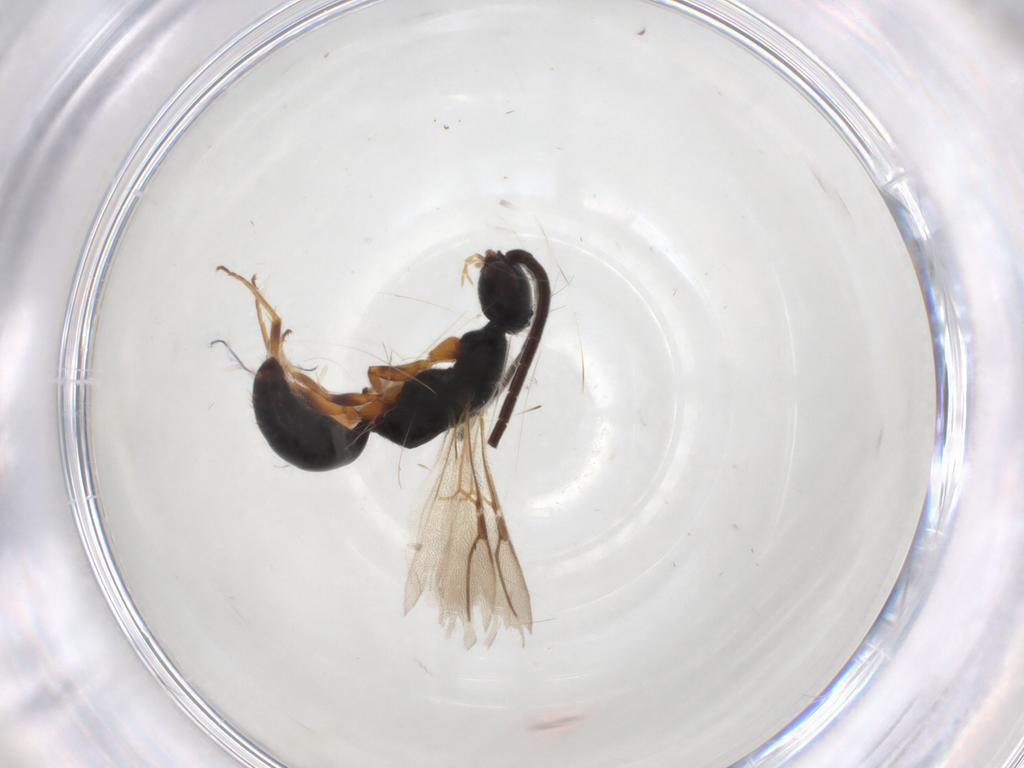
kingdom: Animalia
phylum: Arthropoda
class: Insecta
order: Hymenoptera
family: Bethylidae
